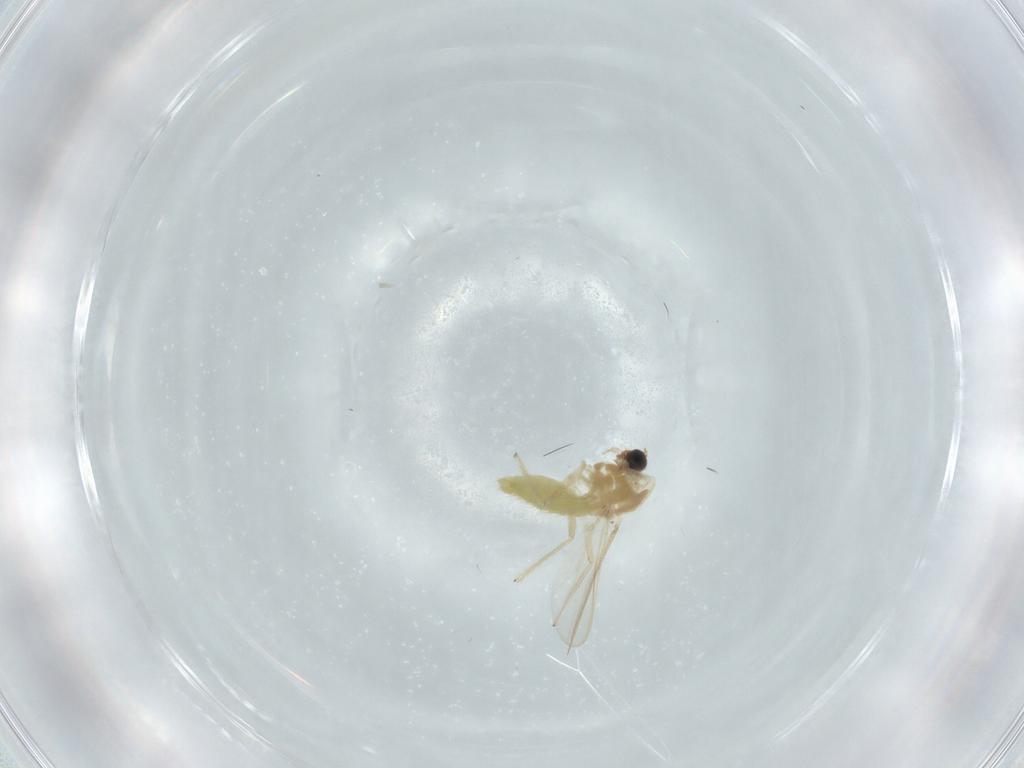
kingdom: Animalia
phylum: Arthropoda
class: Insecta
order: Diptera
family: Chironomidae
